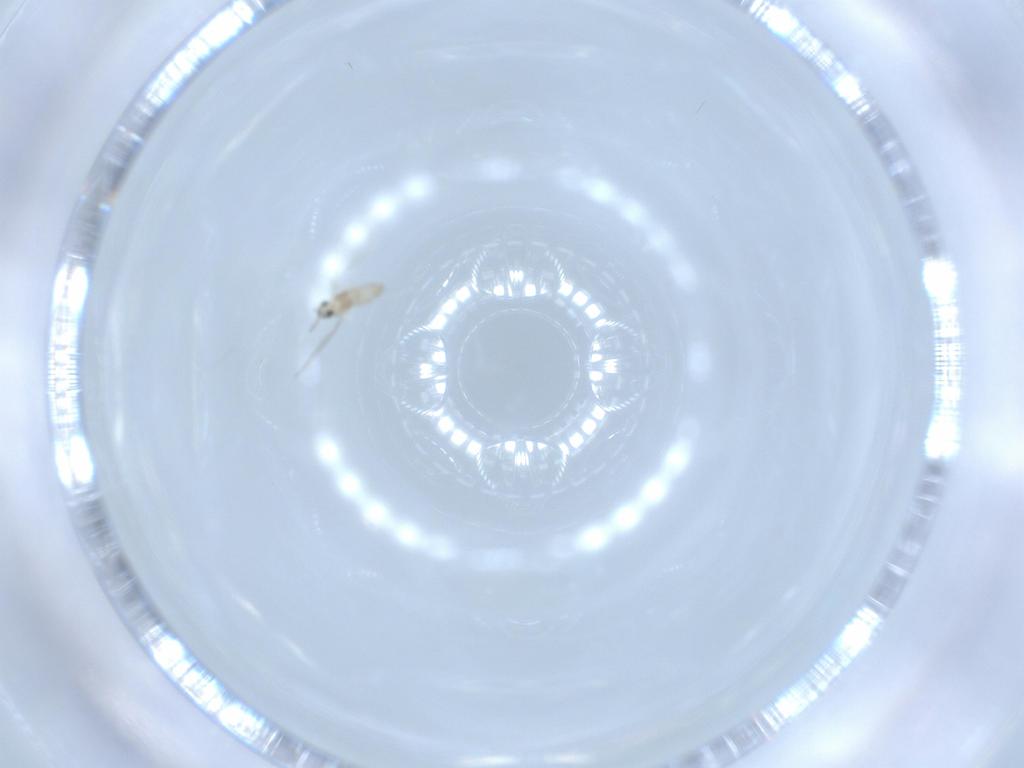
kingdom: Animalia
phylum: Arthropoda
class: Insecta
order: Diptera
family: Cecidomyiidae
